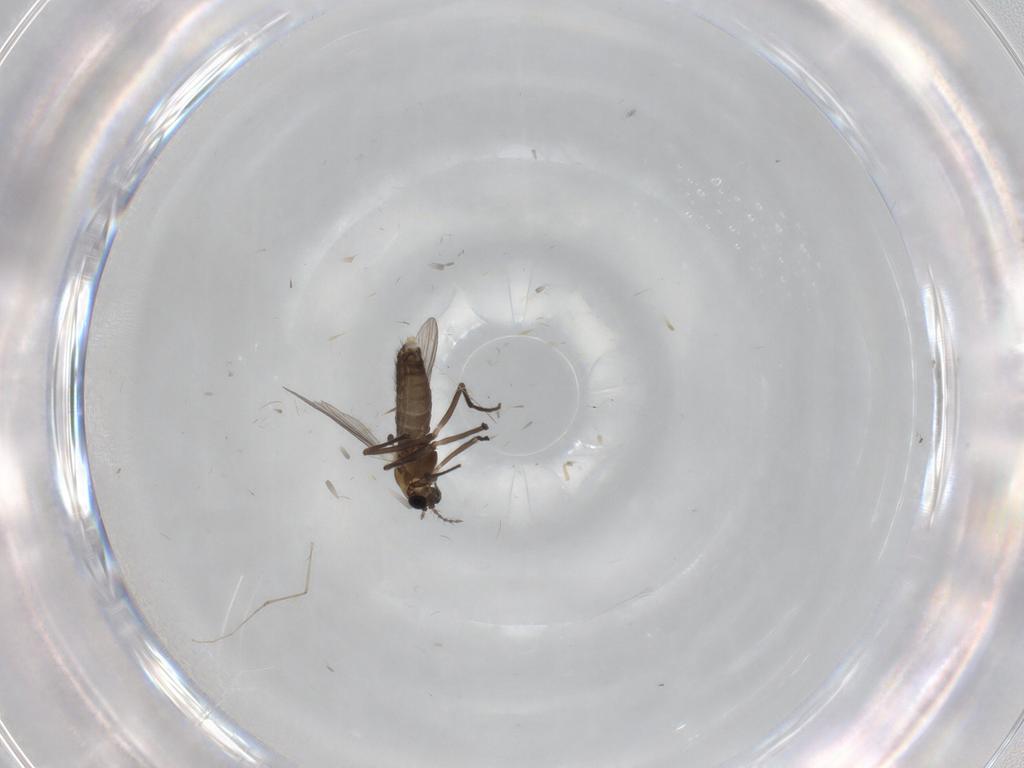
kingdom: Animalia
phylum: Arthropoda
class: Insecta
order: Diptera
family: Chironomidae
